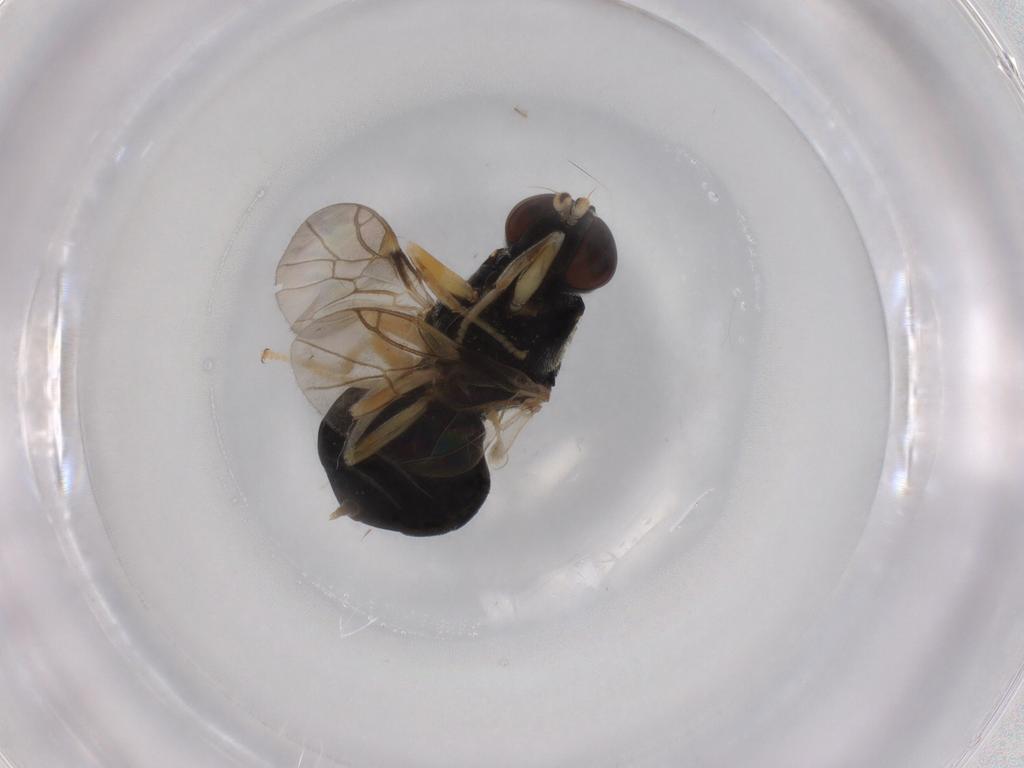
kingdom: Animalia
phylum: Arthropoda
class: Insecta
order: Diptera
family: Stratiomyidae
